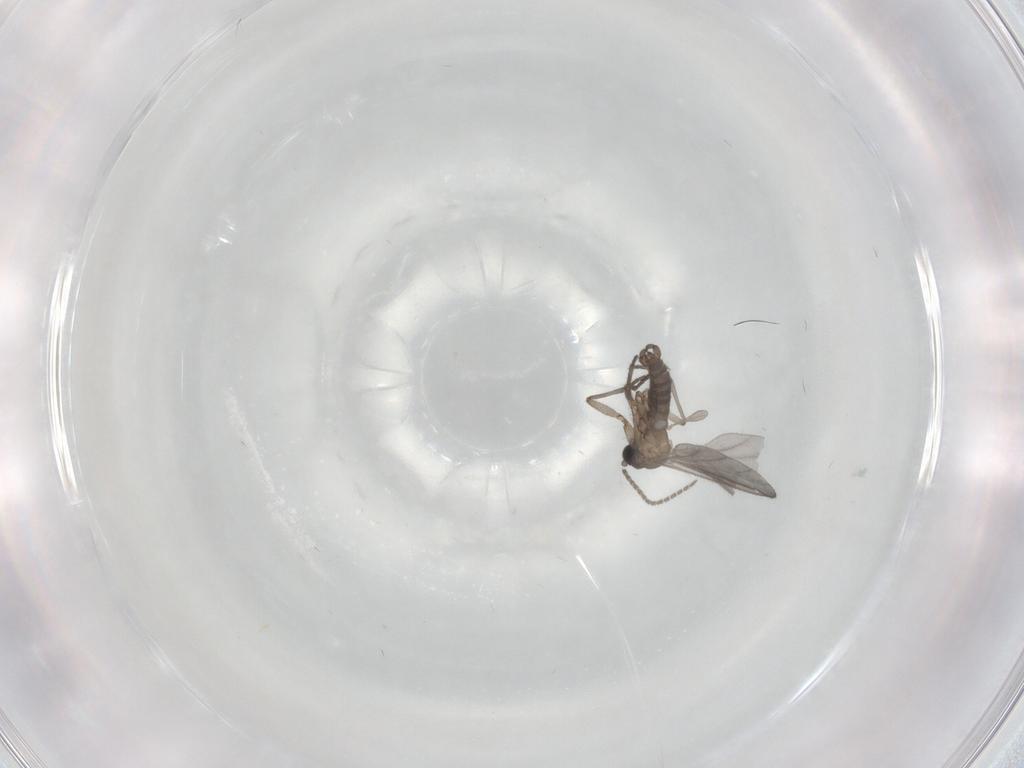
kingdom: Animalia
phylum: Arthropoda
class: Insecta
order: Diptera
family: Sciaridae
